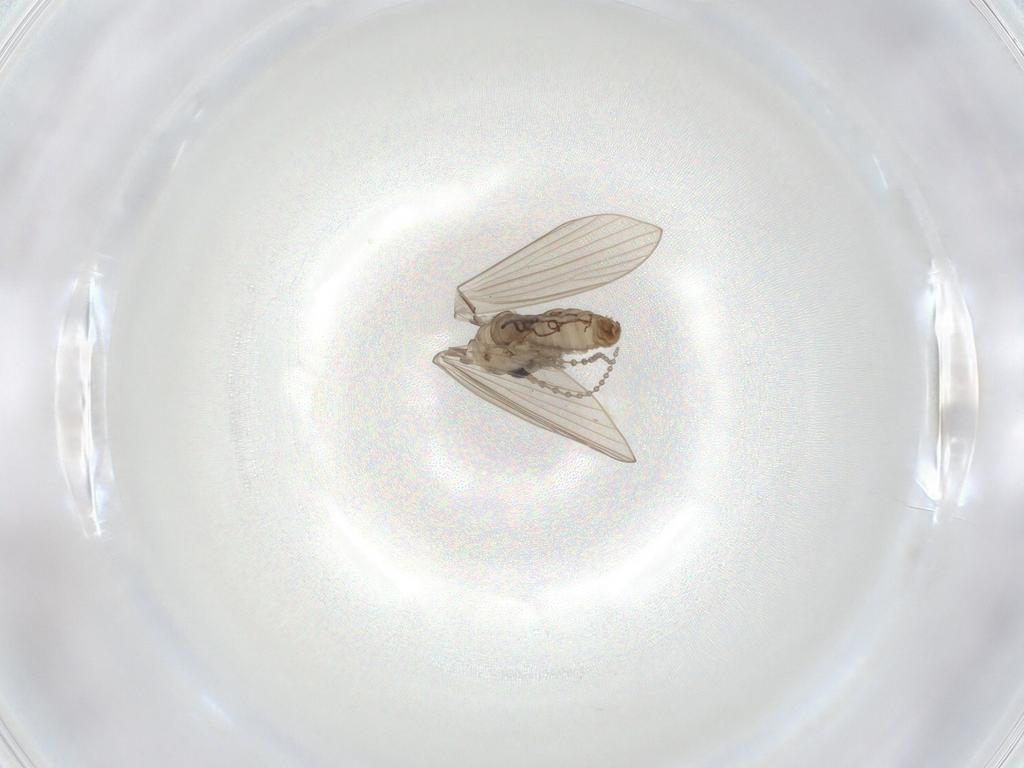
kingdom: Animalia
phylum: Arthropoda
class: Insecta
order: Diptera
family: Psychodidae
